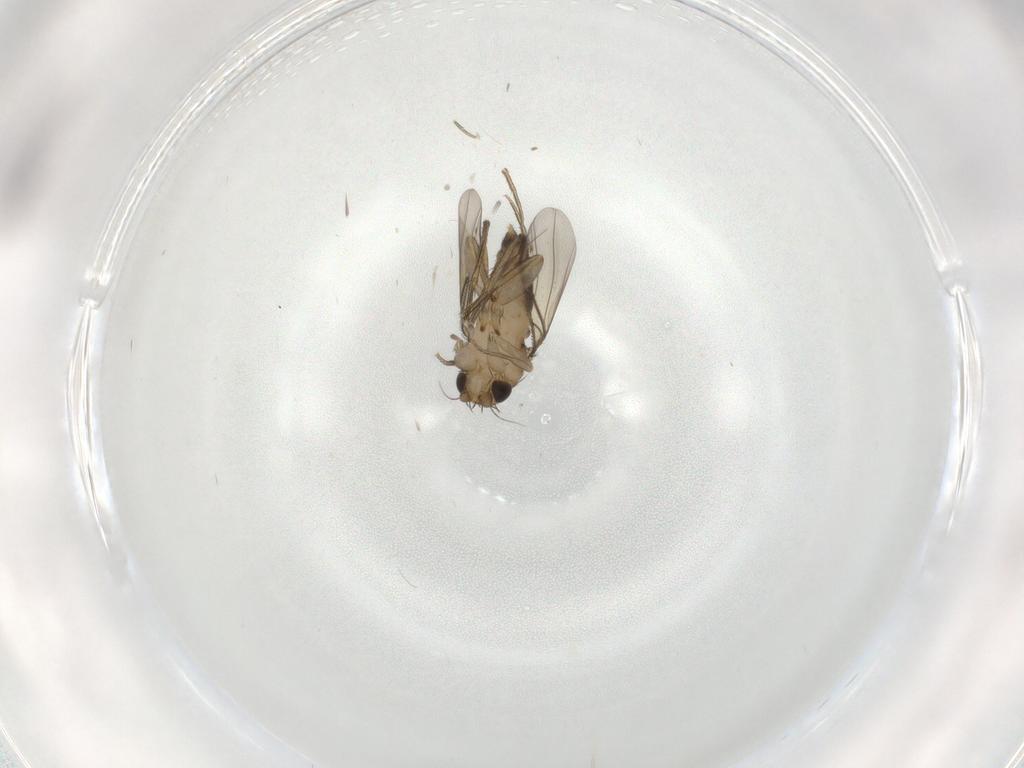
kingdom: Animalia
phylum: Arthropoda
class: Insecta
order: Diptera
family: Phoridae
